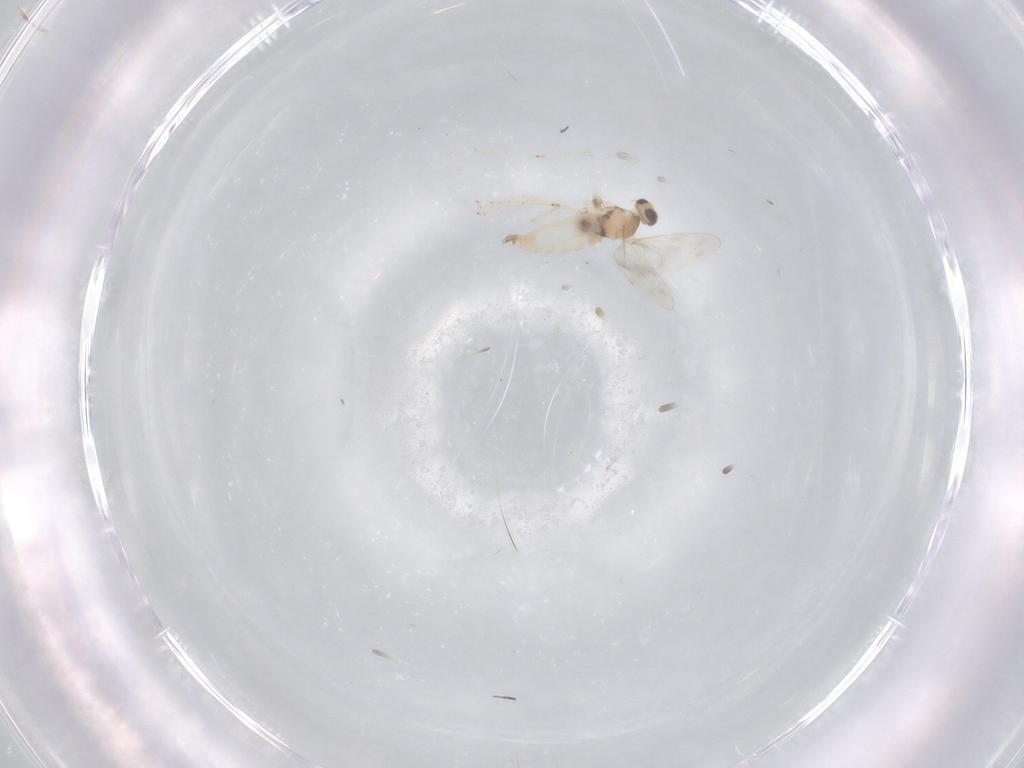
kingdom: Animalia
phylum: Arthropoda
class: Insecta
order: Diptera
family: Cecidomyiidae
